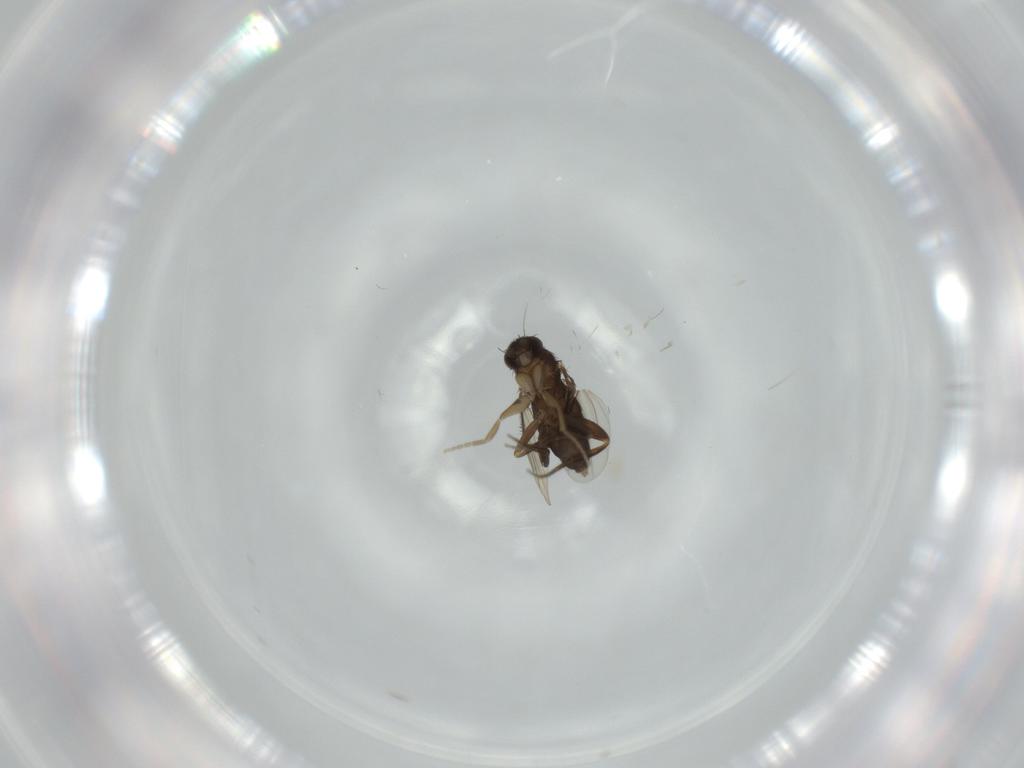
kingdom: Animalia
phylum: Arthropoda
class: Insecta
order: Diptera
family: Phoridae
